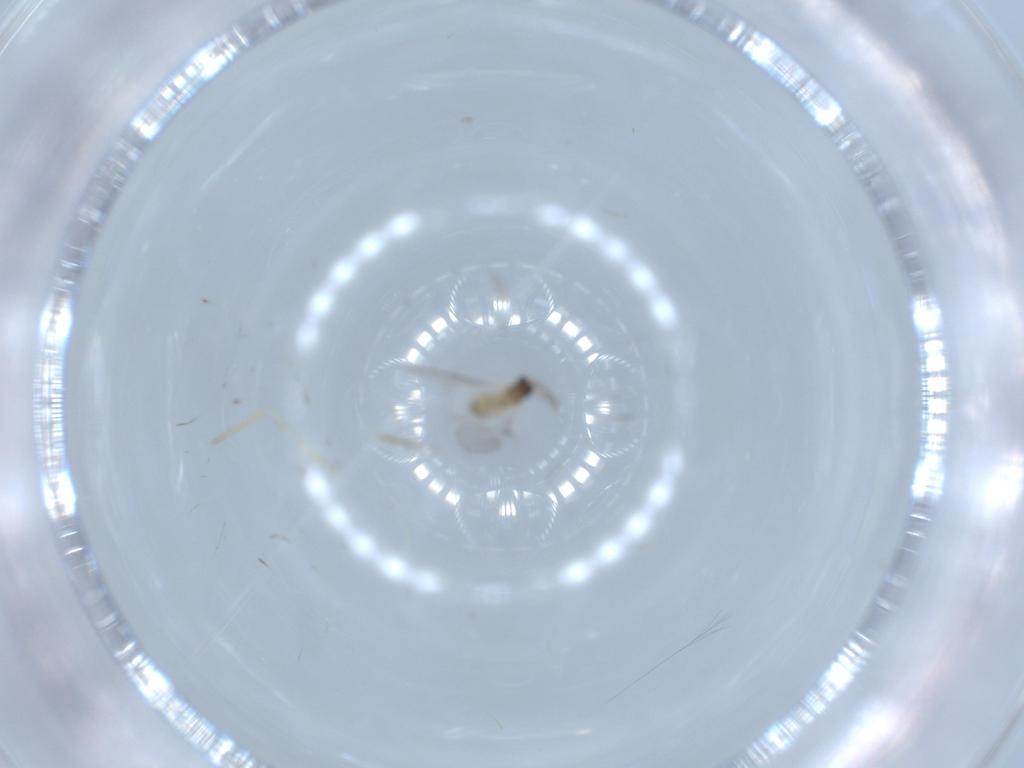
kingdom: Animalia
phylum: Arthropoda
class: Insecta
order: Diptera
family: Cecidomyiidae
